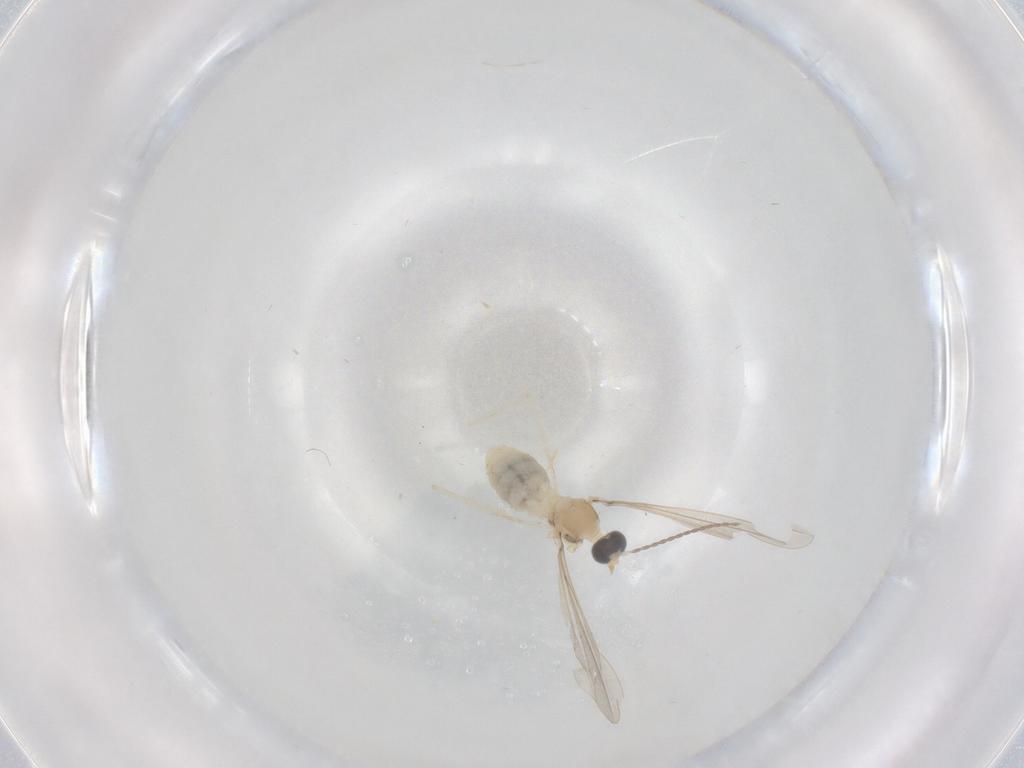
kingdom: Animalia
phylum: Arthropoda
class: Insecta
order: Diptera
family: Cecidomyiidae
